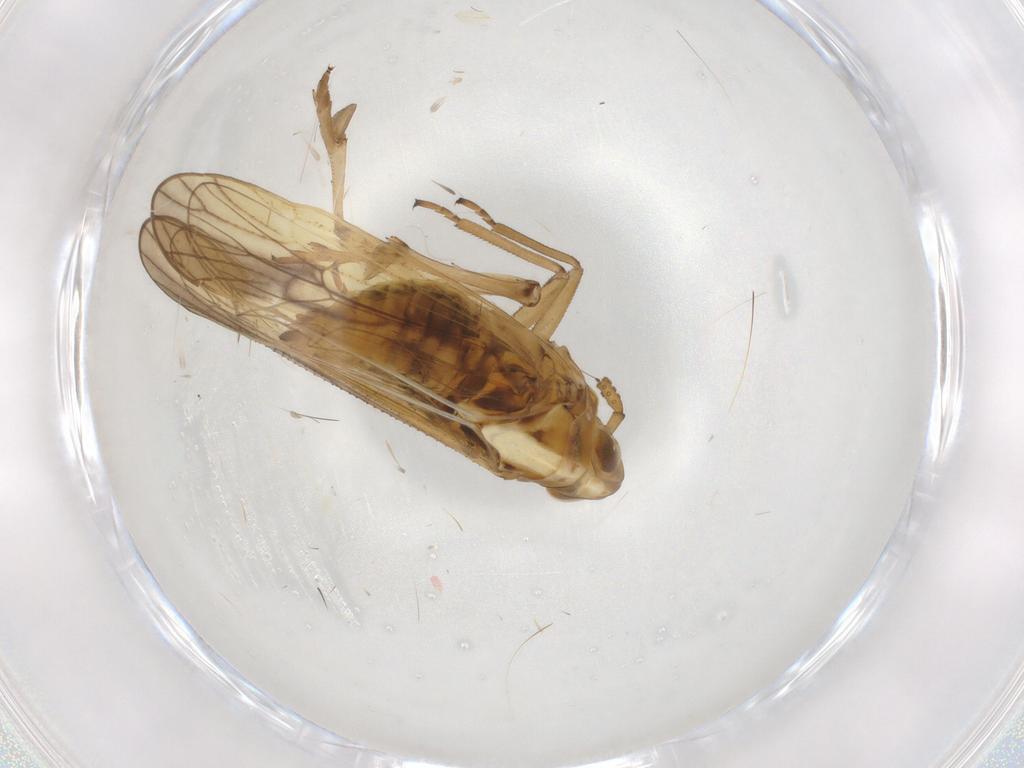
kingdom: Animalia
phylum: Arthropoda
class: Insecta
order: Hemiptera
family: Delphacidae
